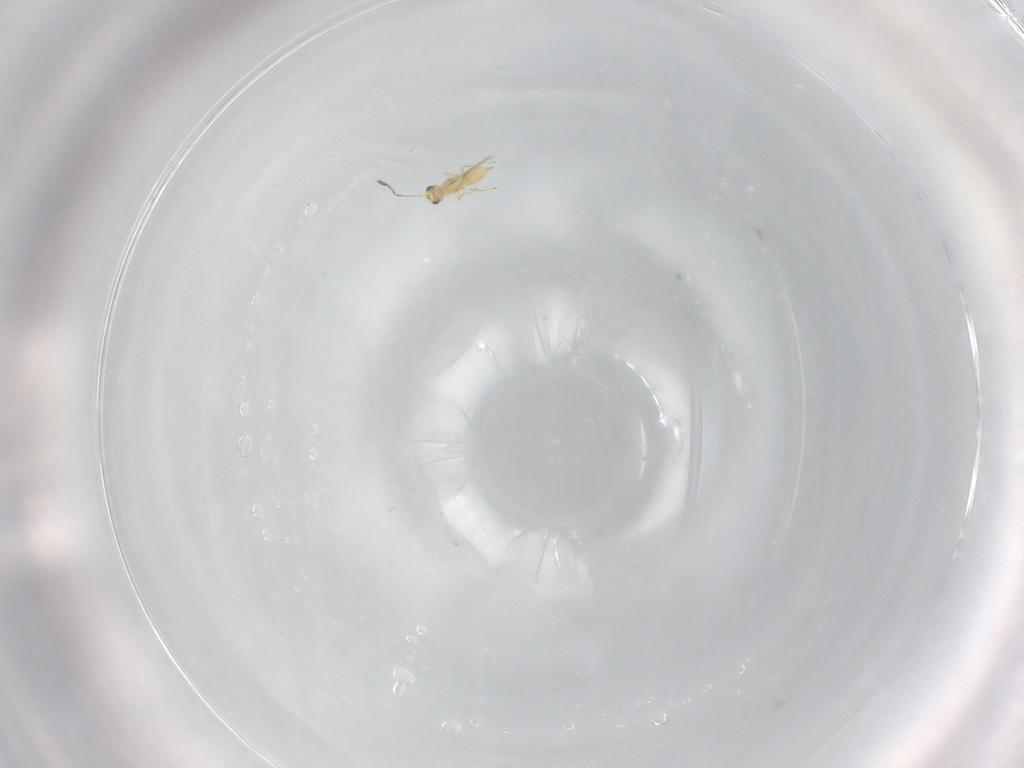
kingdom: Animalia
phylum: Arthropoda
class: Insecta
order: Hymenoptera
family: Mymaridae
